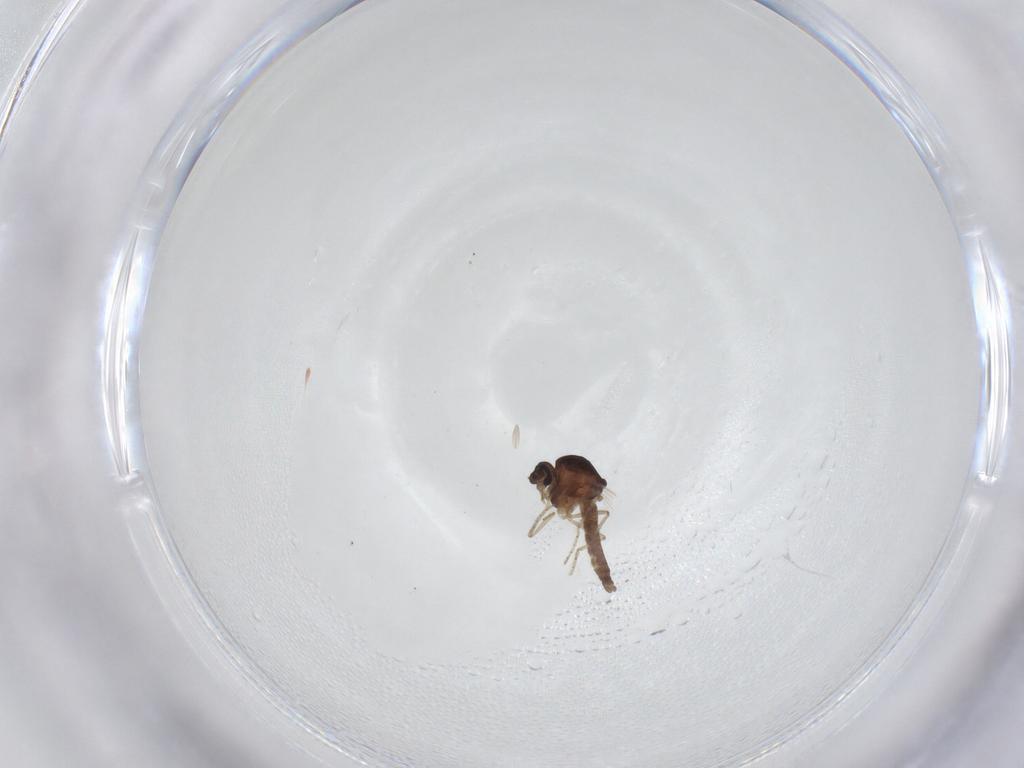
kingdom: Animalia
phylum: Arthropoda
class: Insecta
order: Diptera
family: Ceratopogonidae
